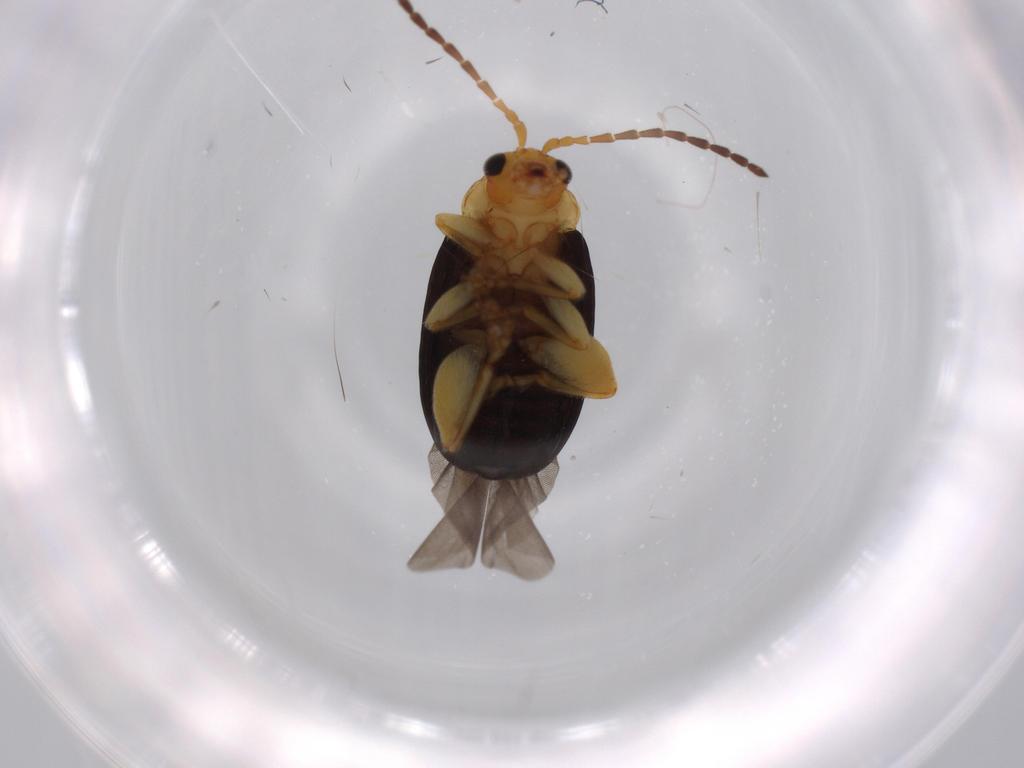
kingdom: Animalia
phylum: Arthropoda
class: Insecta
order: Coleoptera
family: Chrysomelidae
